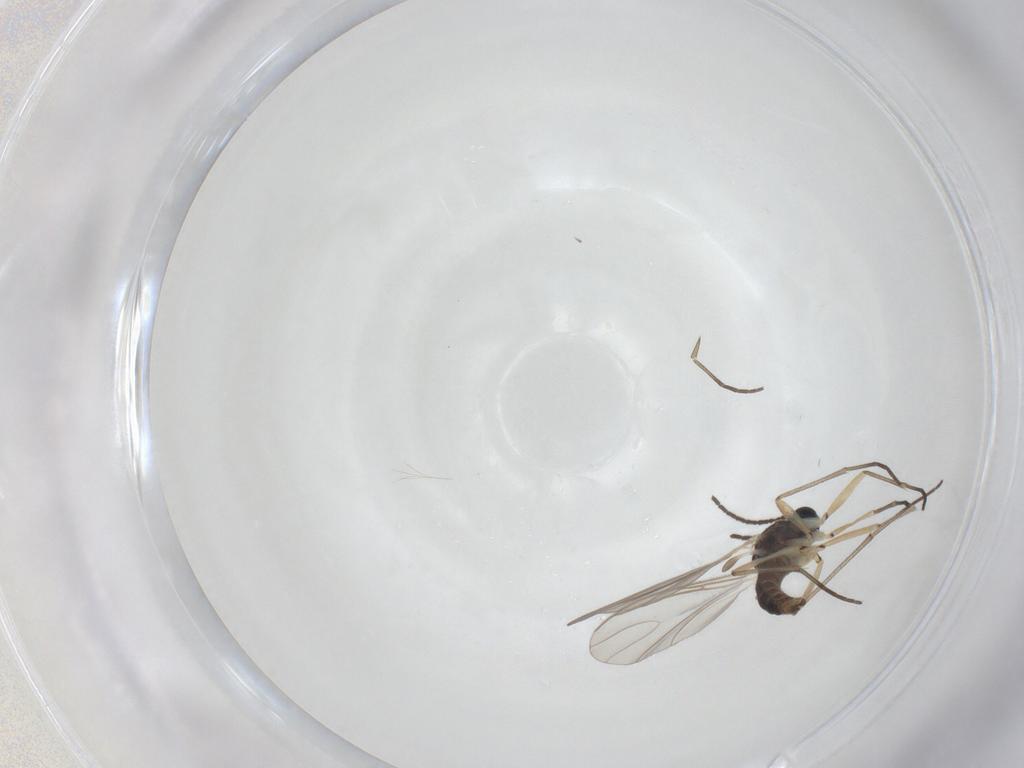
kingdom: Animalia
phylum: Arthropoda
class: Insecta
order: Diptera
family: Sciaridae
